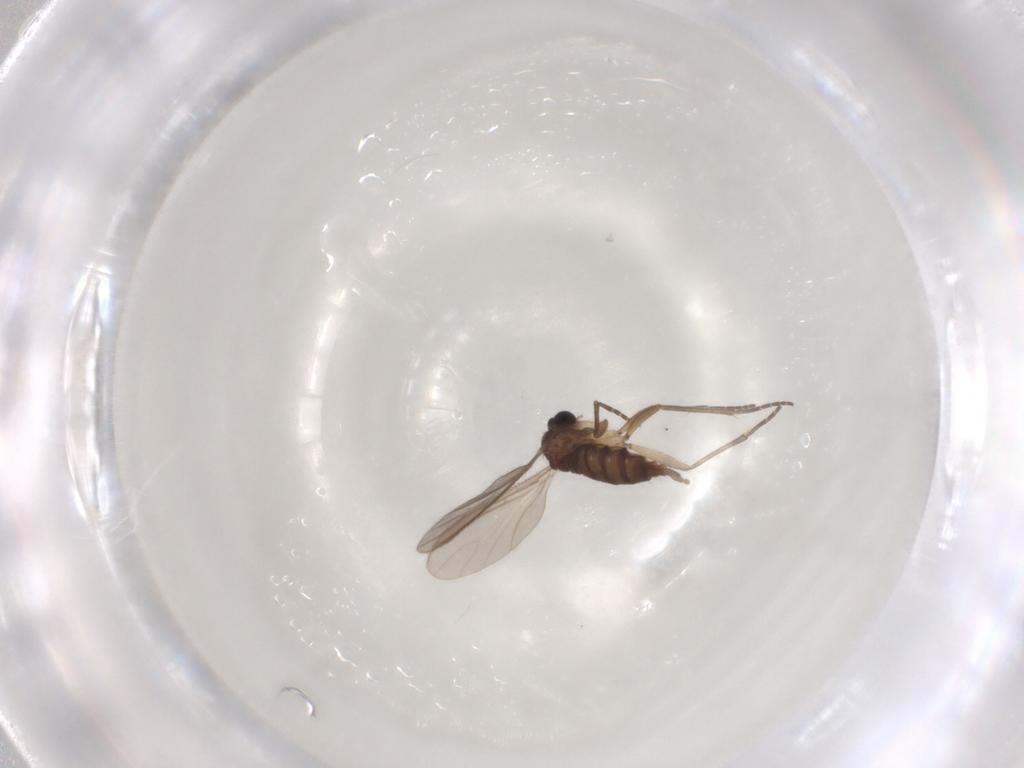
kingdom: Animalia
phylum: Arthropoda
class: Insecta
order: Diptera
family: Sciaridae
